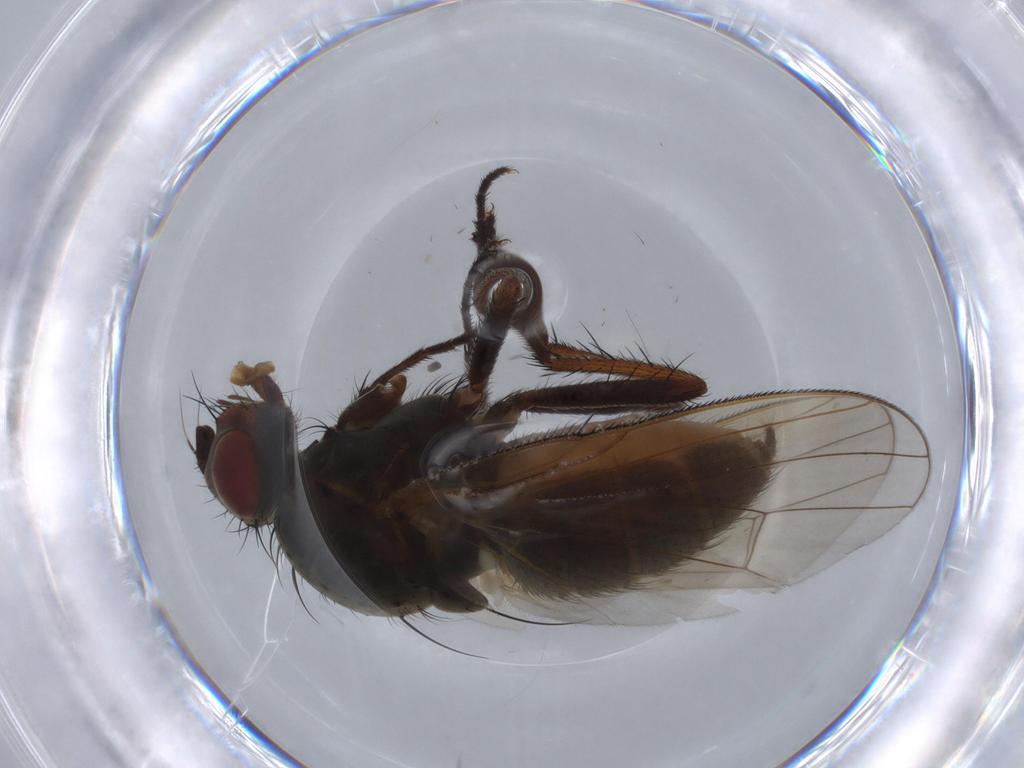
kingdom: Animalia
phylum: Arthropoda
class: Insecta
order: Diptera
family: Anthomyiidae
